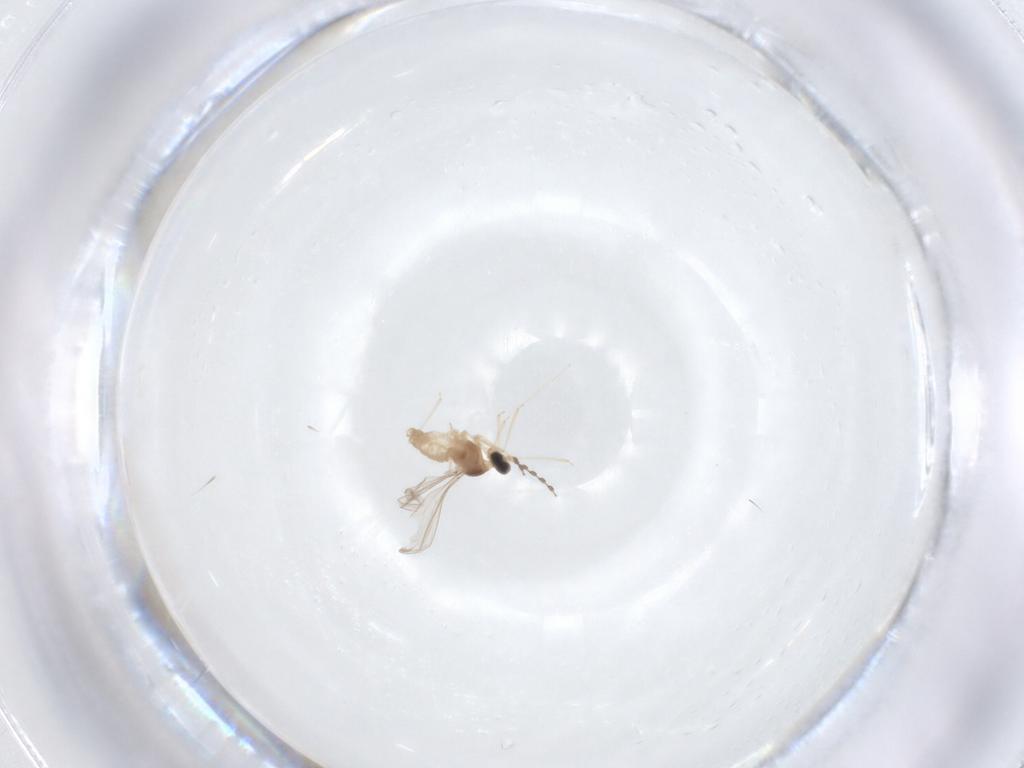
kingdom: Animalia
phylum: Arthropoda
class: Insecta
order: Diptera
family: Cecidomyiidae
